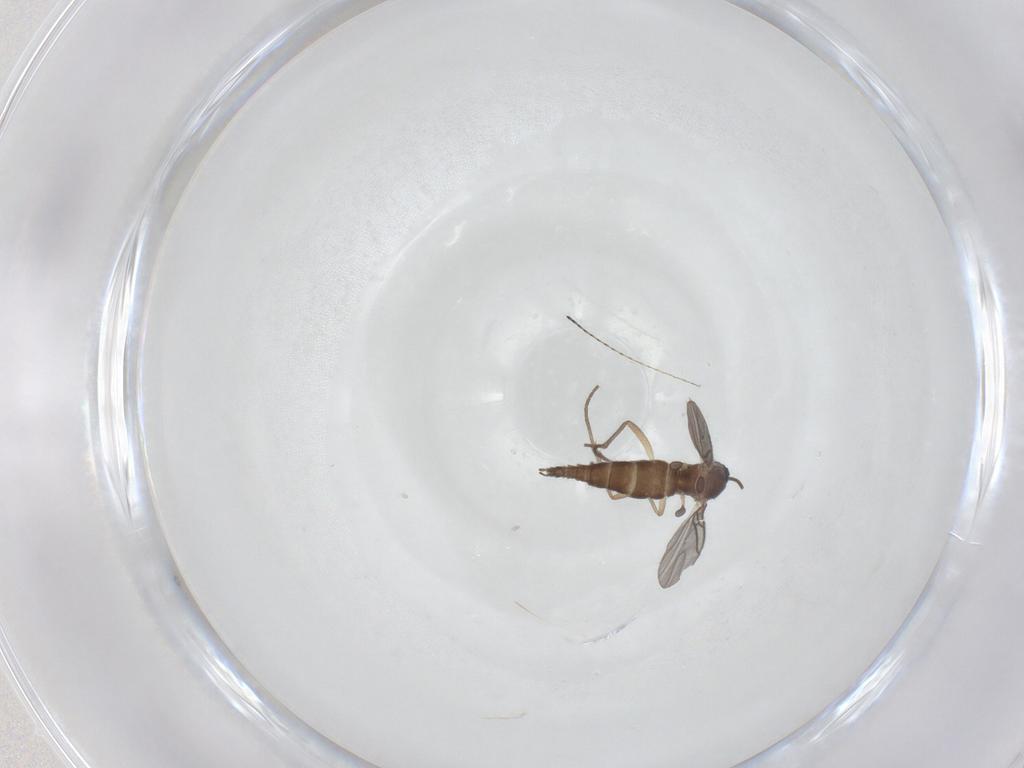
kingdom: Animalia
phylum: Arthropoda
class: Insecta
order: Diptera
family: Sciaridae
